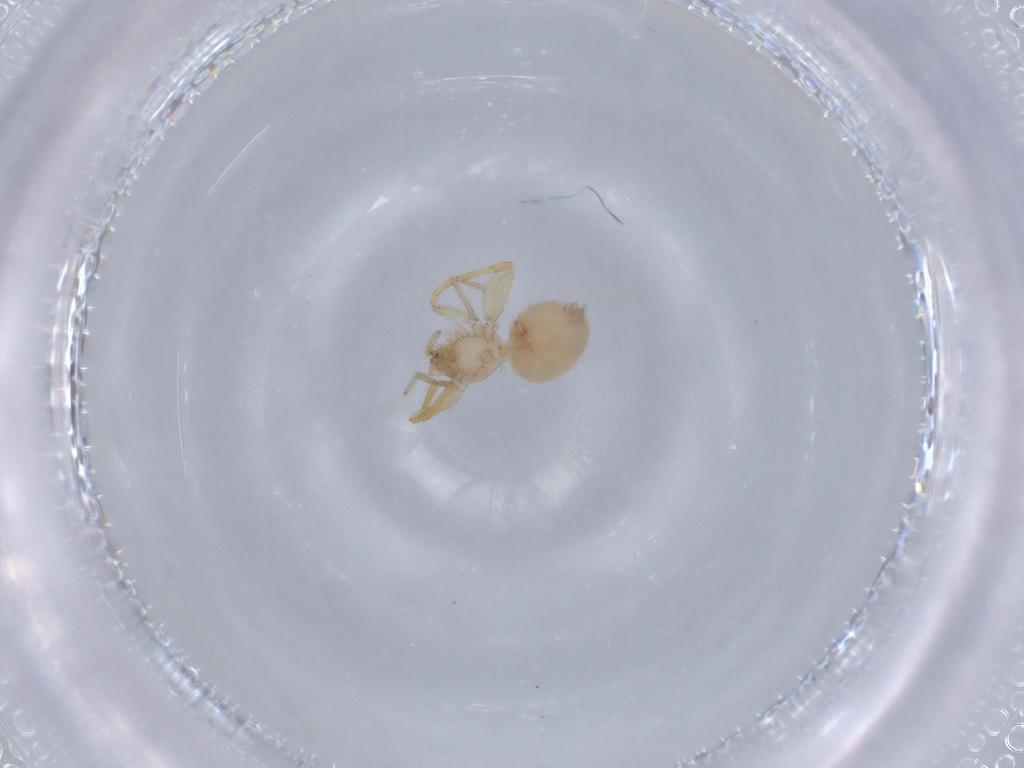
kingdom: Animalia
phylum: Arthropoda
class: Arachnida
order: Araneae
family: Oonopidae
